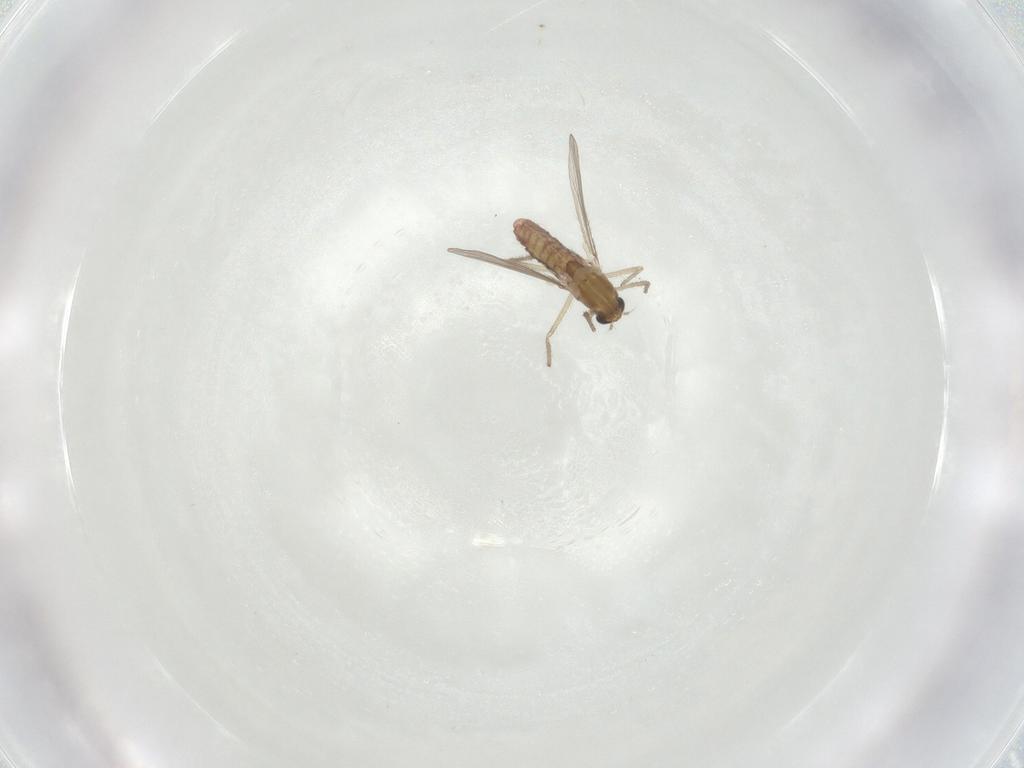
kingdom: Animalia
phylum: Arthropoda
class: Insecta
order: Diptera
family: Chironomidae
